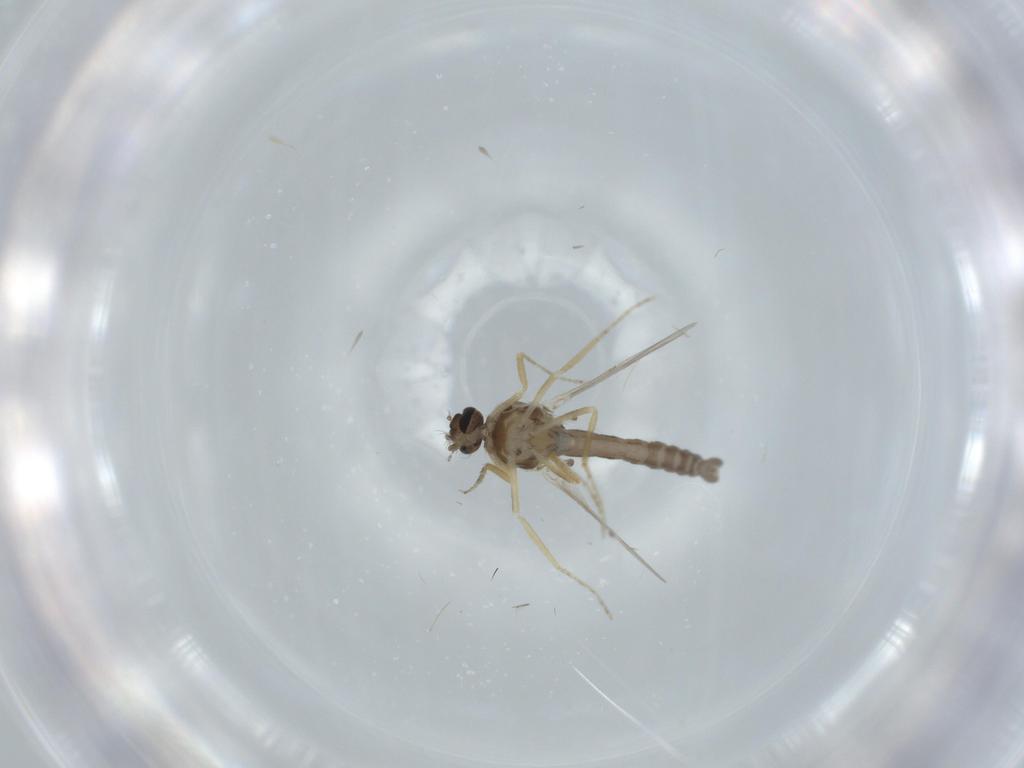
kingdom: Animalia
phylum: Arthropoda
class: Insecta
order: Diptera
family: Ceratopogonidae
